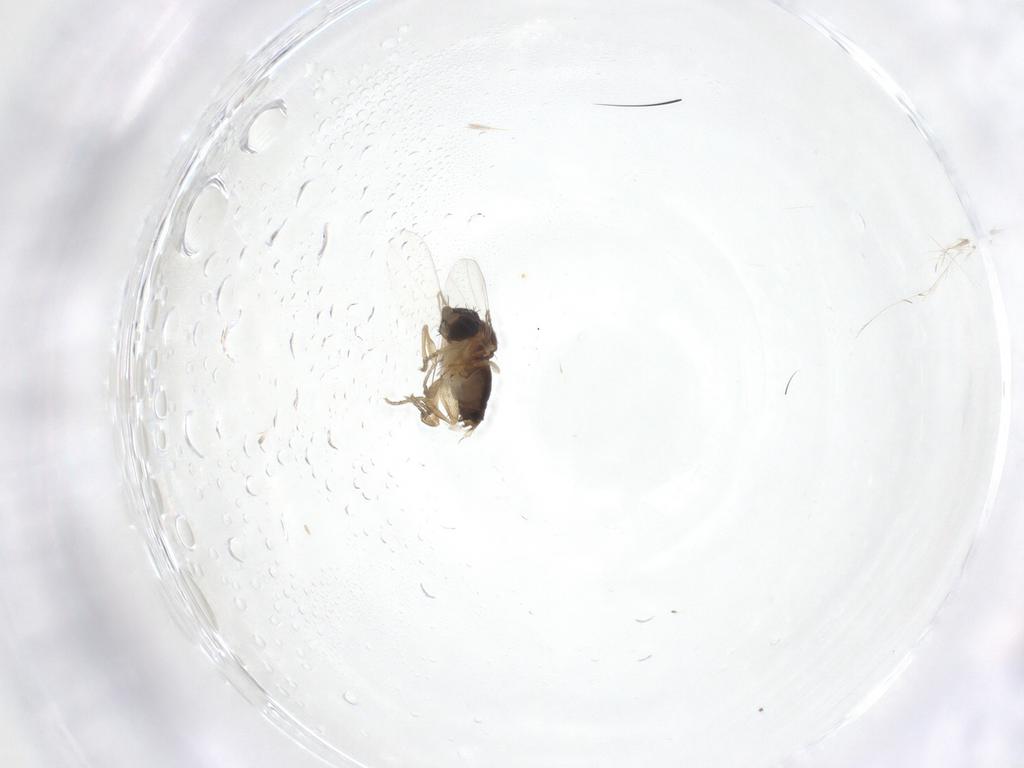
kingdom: Animalia
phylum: Arthropoda
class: Insecta
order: Diptera
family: Phoridae
